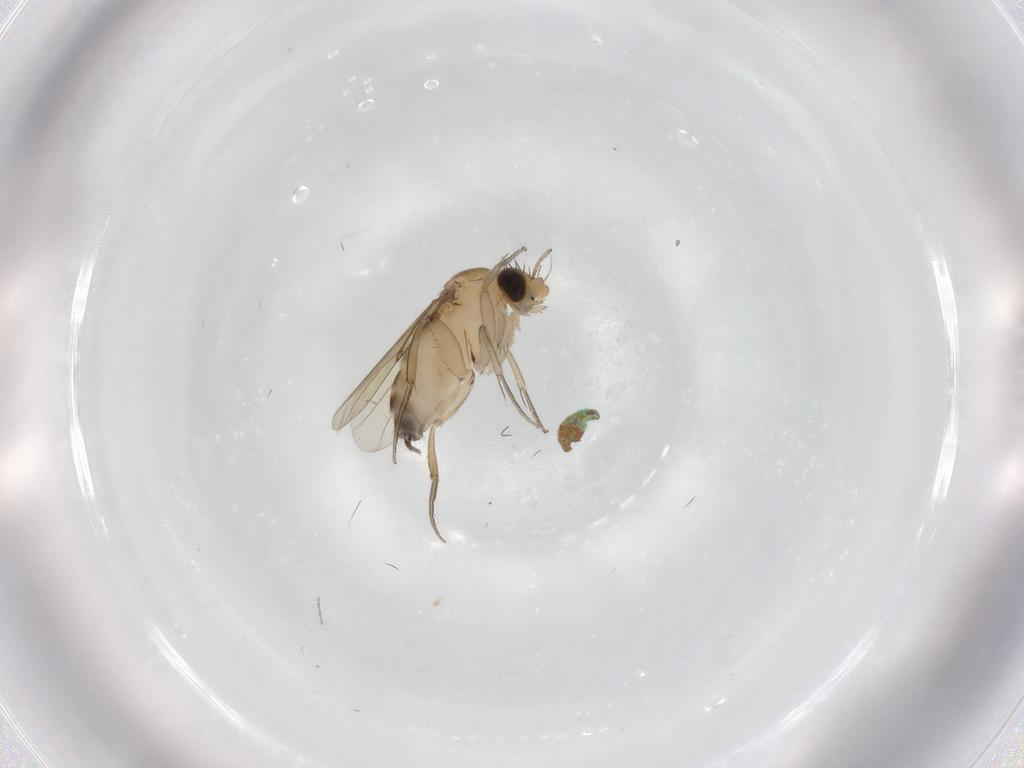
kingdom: Animalia
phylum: Arthropoda
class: Insecta
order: Diptera
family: Phoridae
